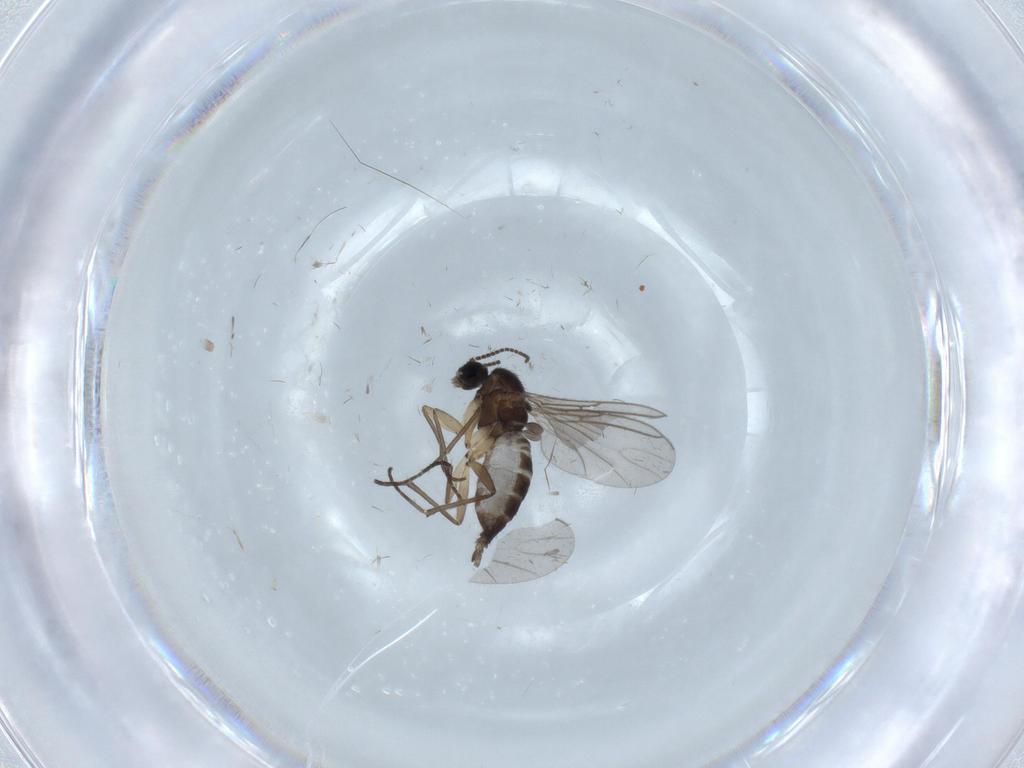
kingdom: Animalia
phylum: Arthropoda
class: Insecta
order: Diptera
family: Sciaridae
